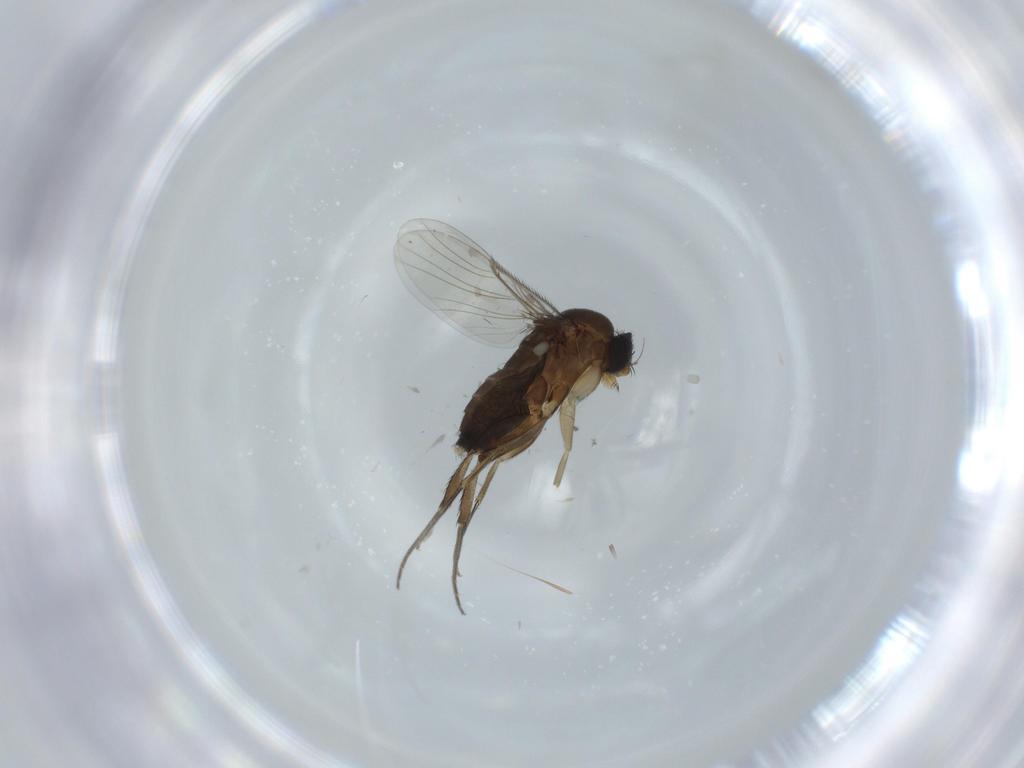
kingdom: Animalia
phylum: Arthropoda
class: Insecta
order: Diptera
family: Phoridae
